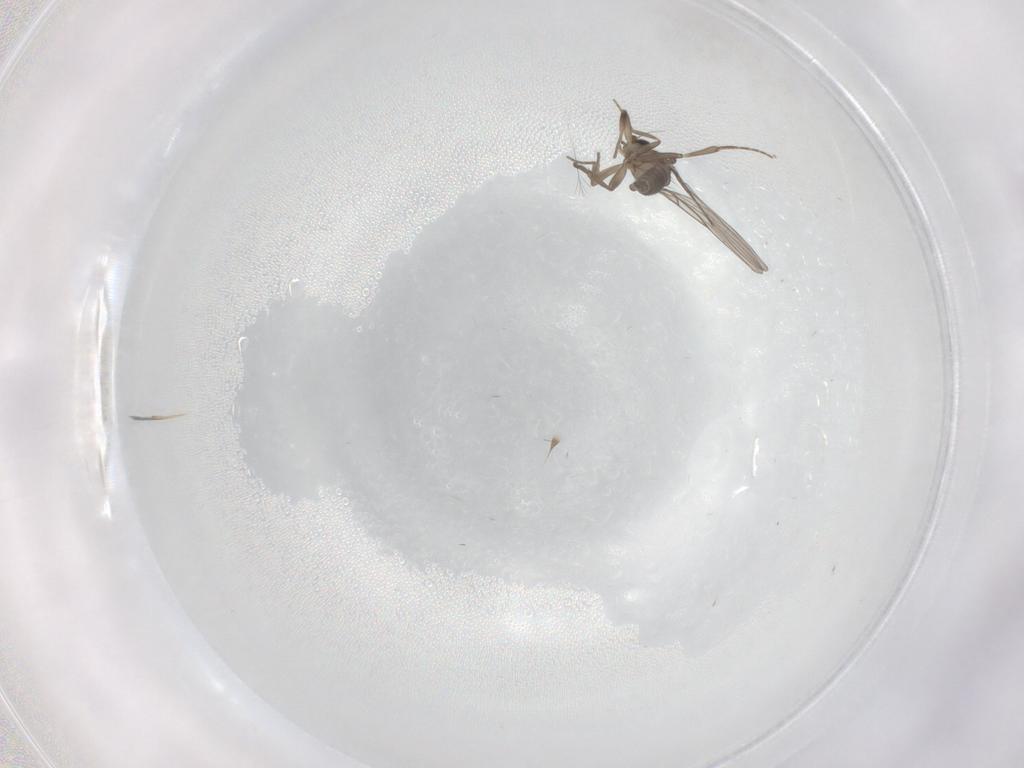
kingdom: Animalia
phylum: Arthropoda
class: Insecta
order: Diptera
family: Phoridae
